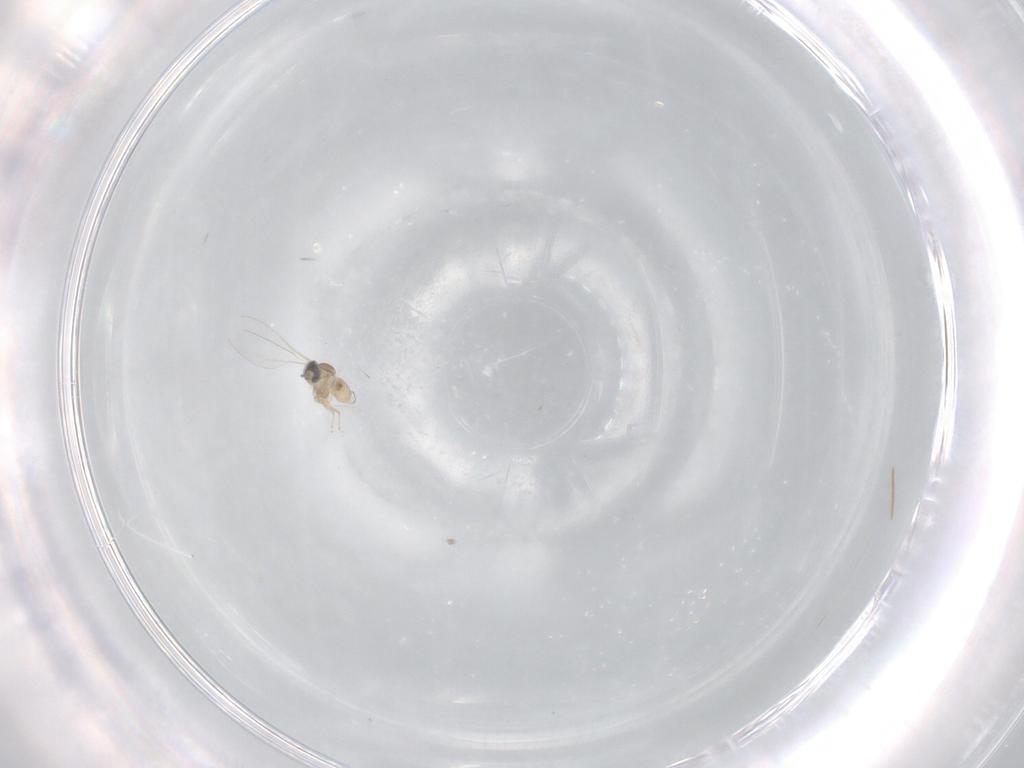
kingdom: Animalia
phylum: Arthropoda
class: Insecta
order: Diptera
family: Cecidomyiidae
